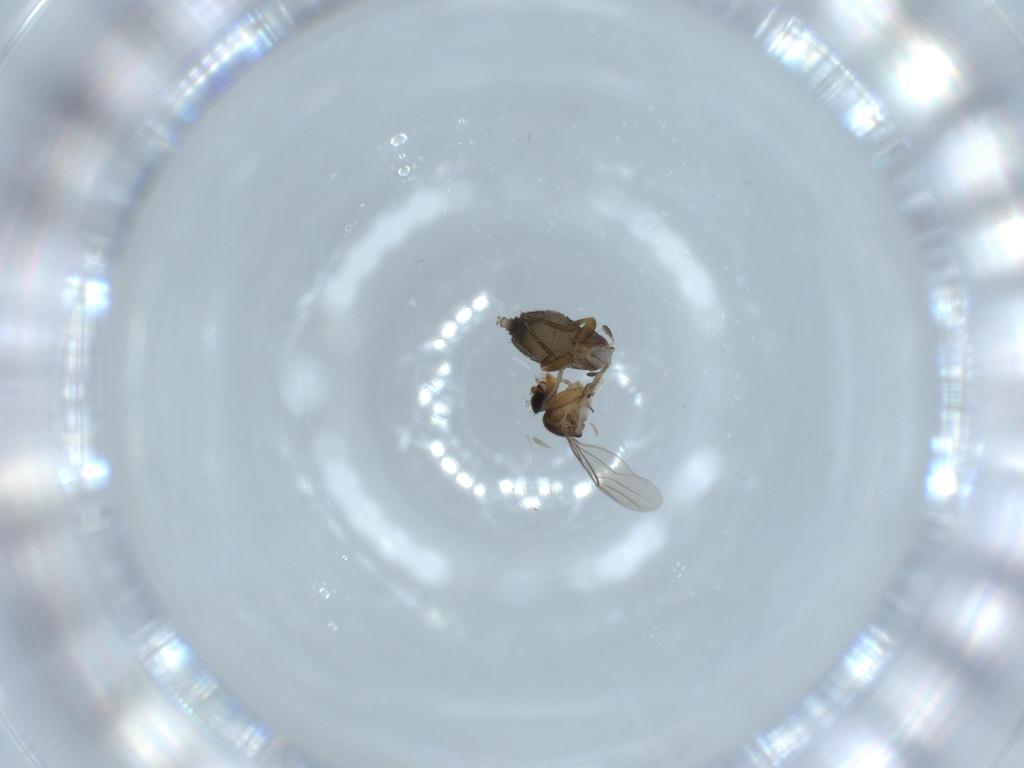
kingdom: Animalia
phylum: Arthropoda
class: Insecta
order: Diptera
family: Phoridae
